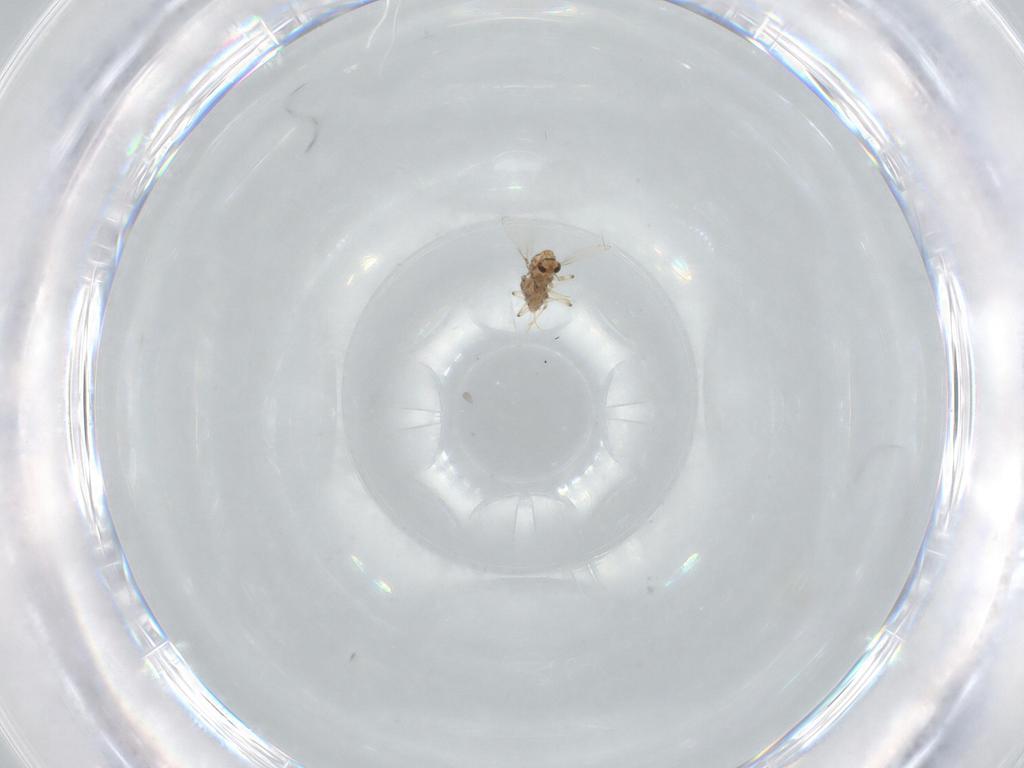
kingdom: Animalia
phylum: Arthropoda
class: Insecta
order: Diptera
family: Chironomidae
